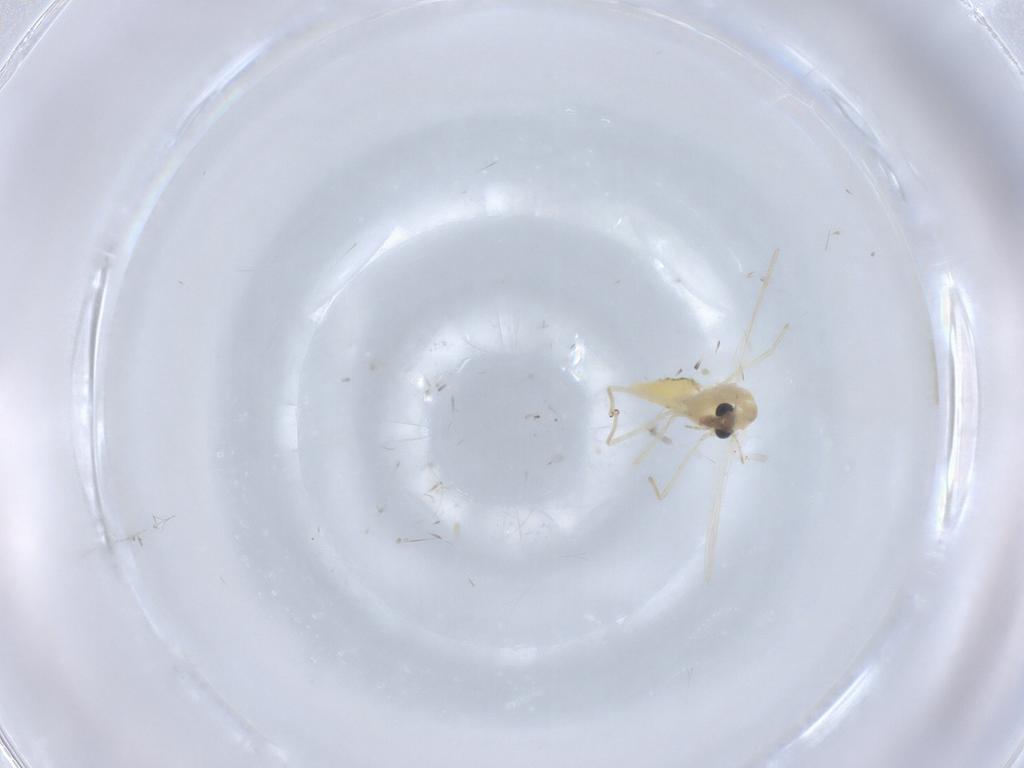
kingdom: Animalia
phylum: Arthropoda
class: Insecta
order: Diptera
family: Chironomidae
